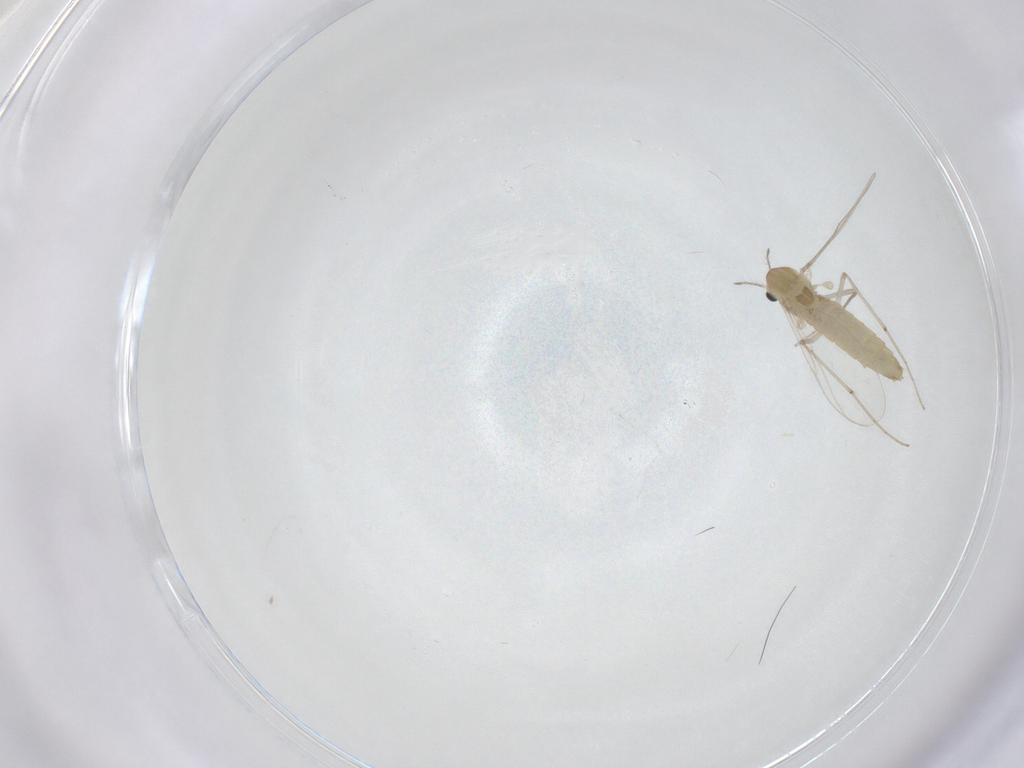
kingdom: Animalia
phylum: Arthropoda
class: Insecta
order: Diptera
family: Chironomidae
